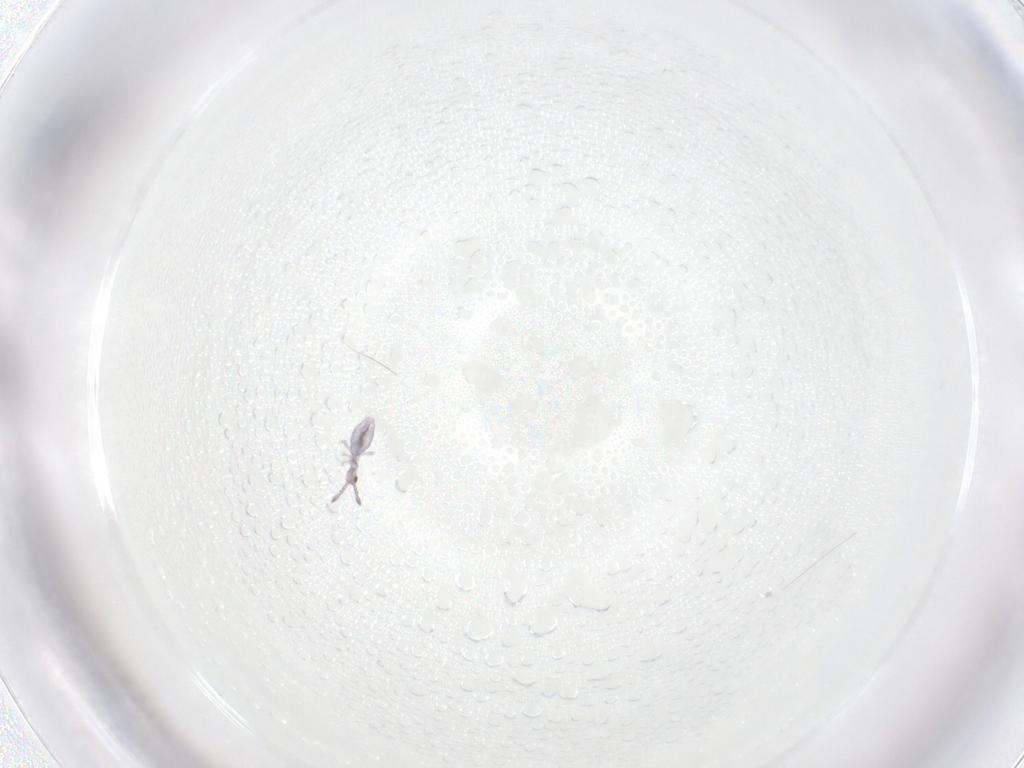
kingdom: Animalia
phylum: Arthropoda
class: Collembola
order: Entomobryomorpha
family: Entomobryidae
